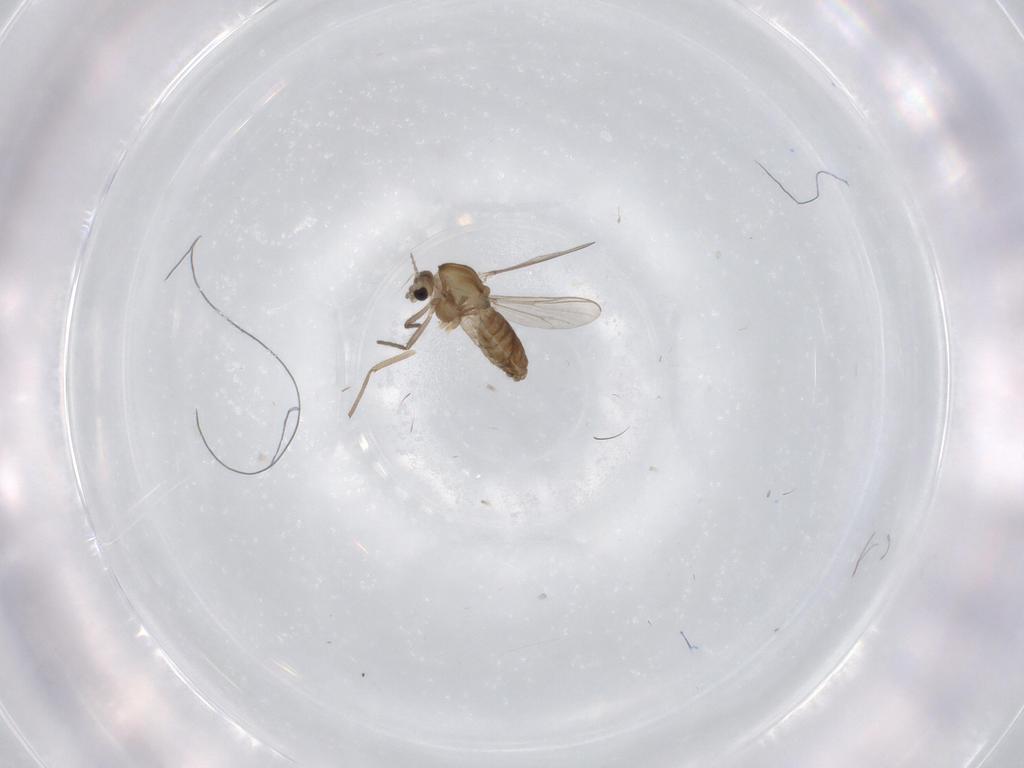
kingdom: Animalia
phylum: Arthropoda
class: Insecta
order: Diptera
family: Chironomidae
